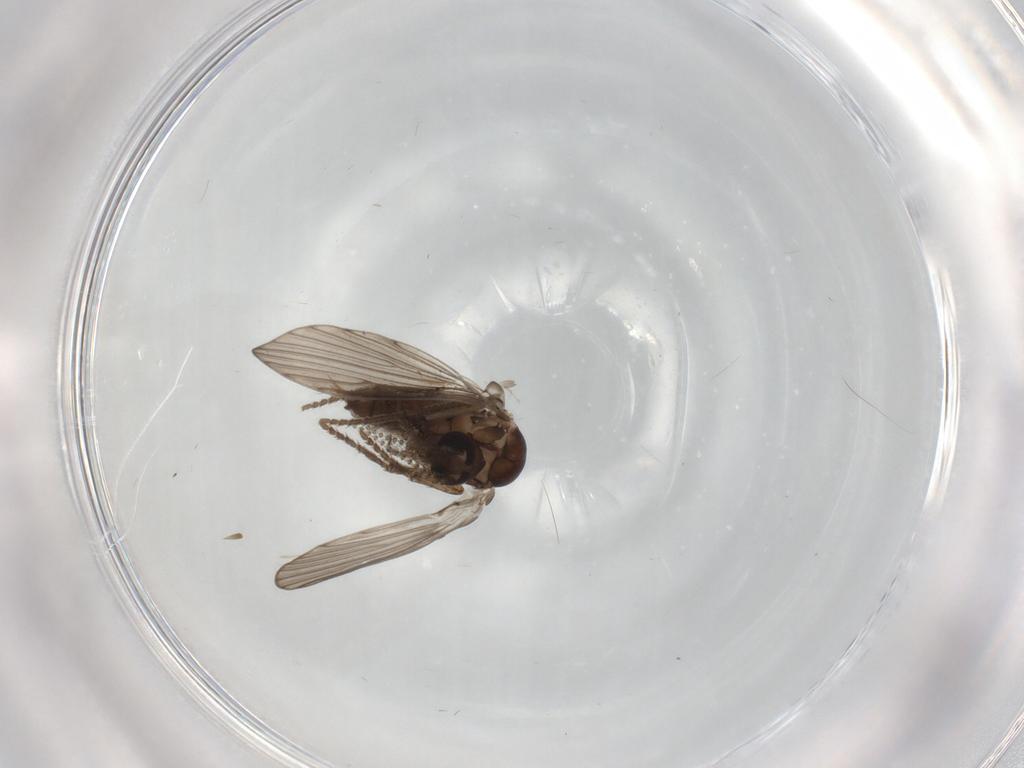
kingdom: Animalia
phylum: Arthropoda
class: Insecta
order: Diptera
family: Psychodidae
